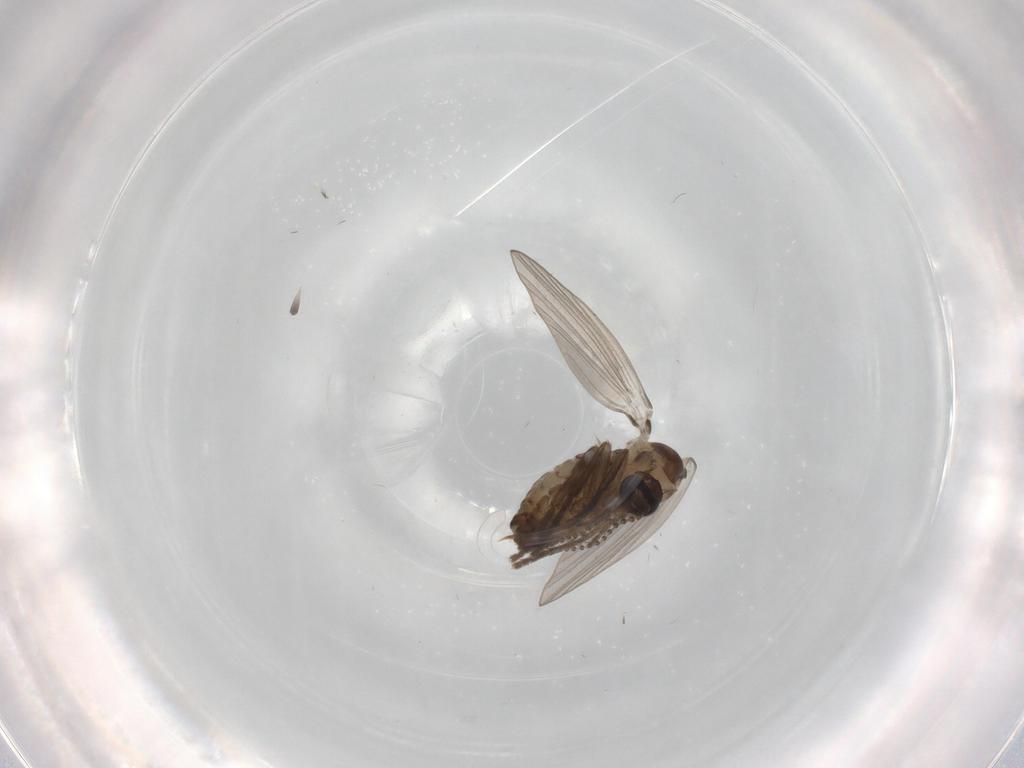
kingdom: Animalia
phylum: Arthropoda
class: Insecta
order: Diptera
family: Psychodidae
